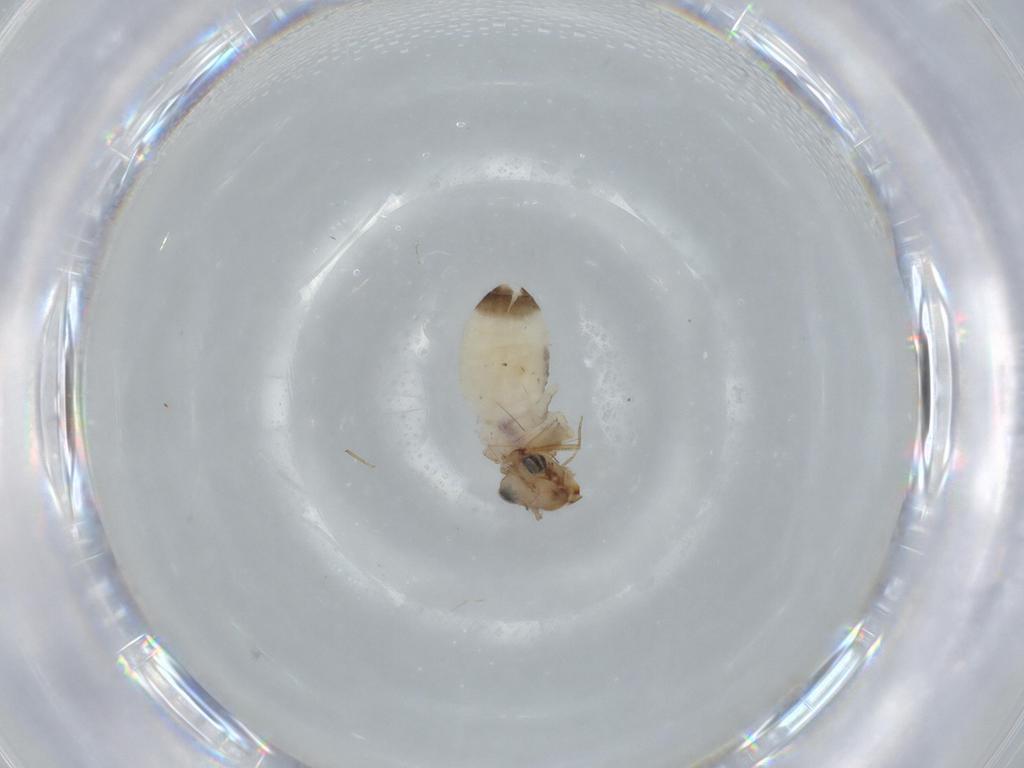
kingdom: Animalia
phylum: Arthropoda
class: Insecta
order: Psocodea
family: Lepidopsocidae
